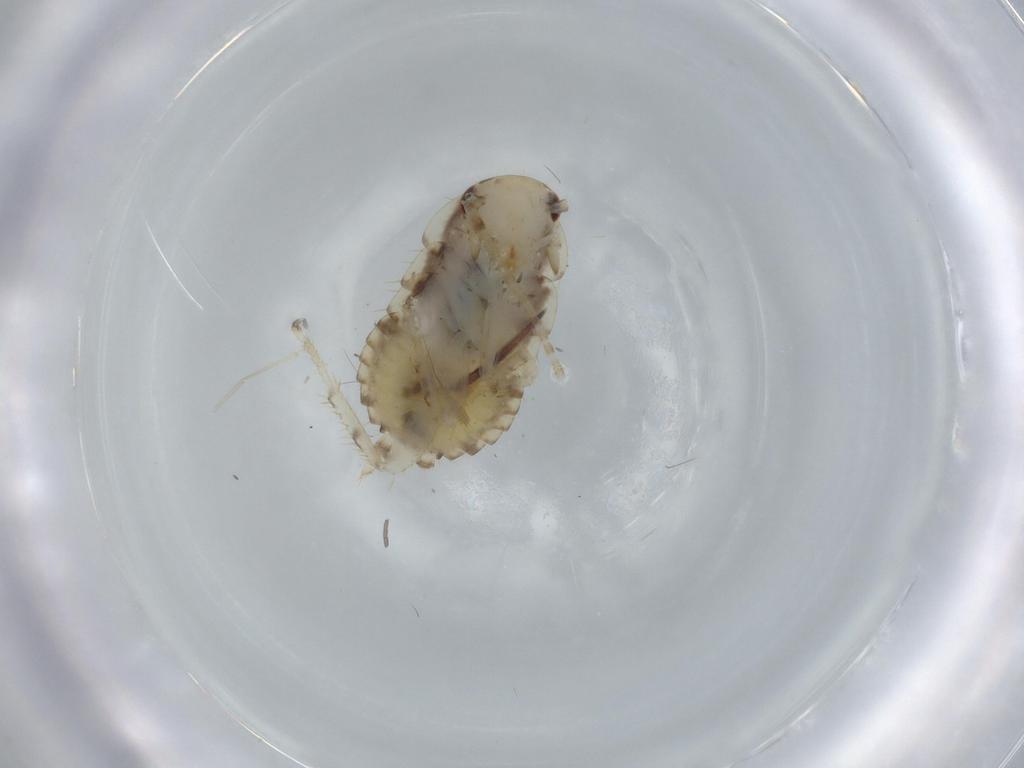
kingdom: Animalia
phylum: Arthropoda
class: Insecta
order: Blattodea
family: Ectobiidae
